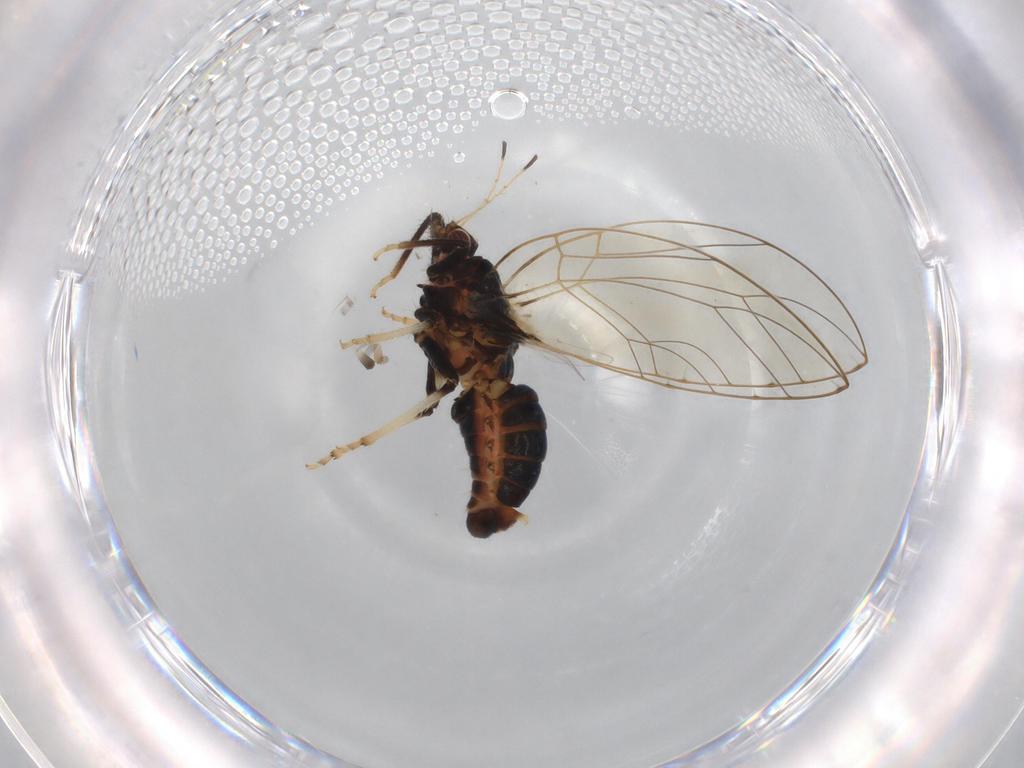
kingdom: Animalia
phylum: Arthropoda
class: Insecta
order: Hemiptera
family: Triozidae
